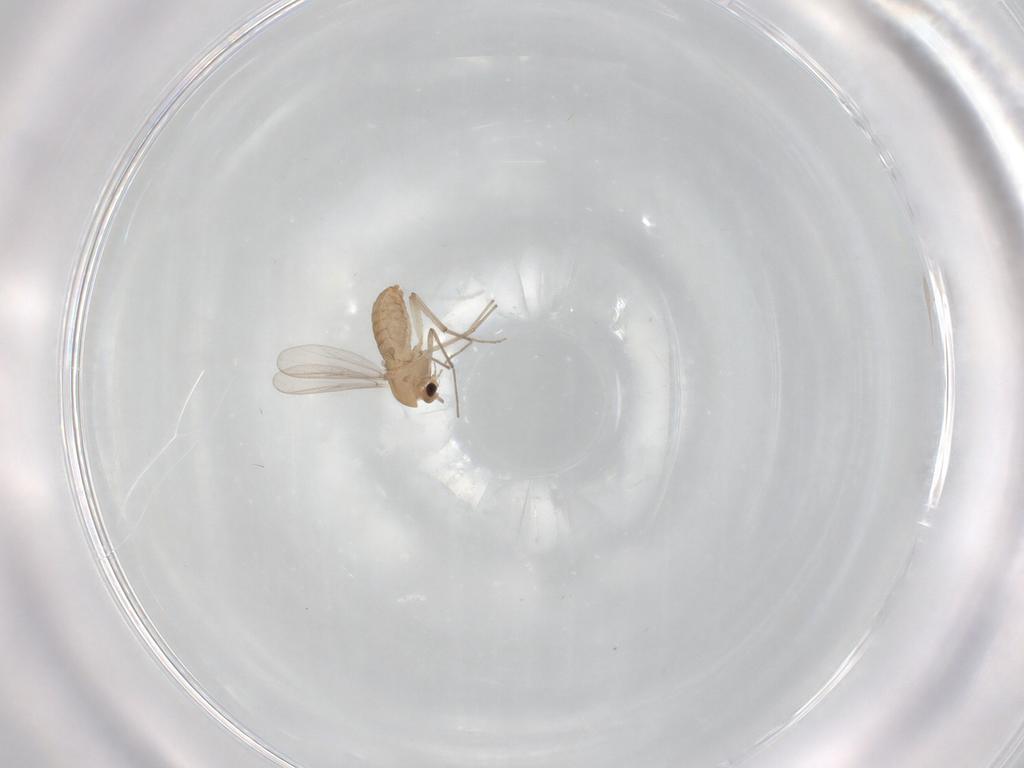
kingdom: Animalia
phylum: Arthropoda
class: Insecta
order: Diptera
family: Chironomidae
